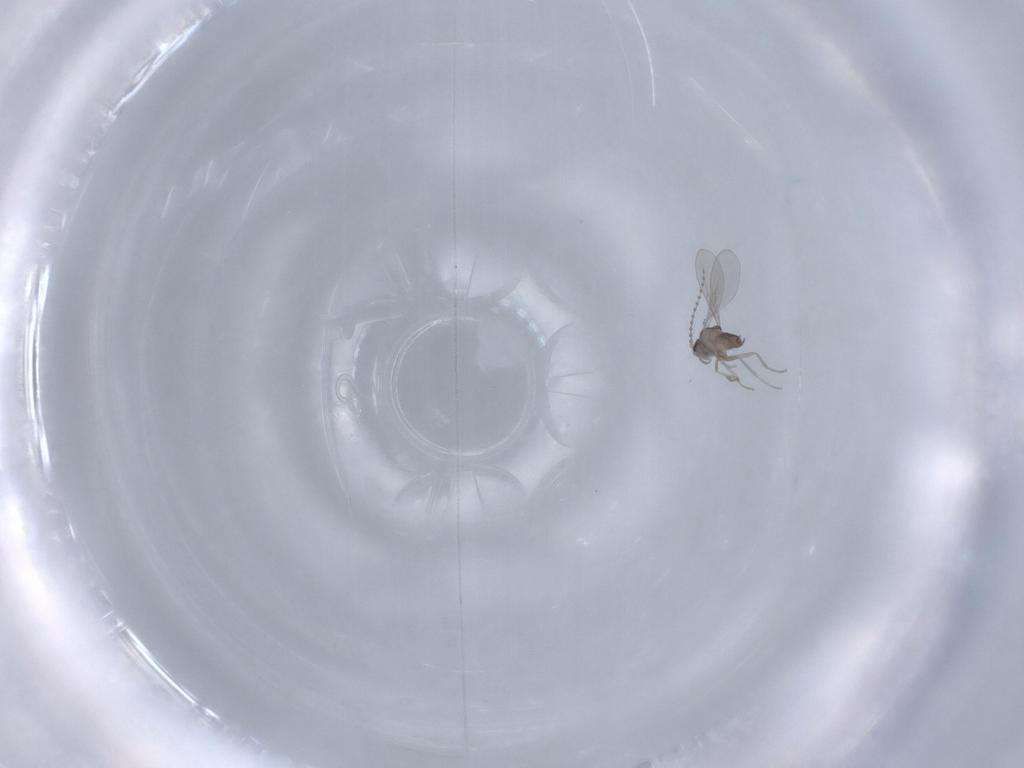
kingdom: Animalia
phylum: Arthropoda
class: Insecta
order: Diptera
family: Cecidomyiidae
